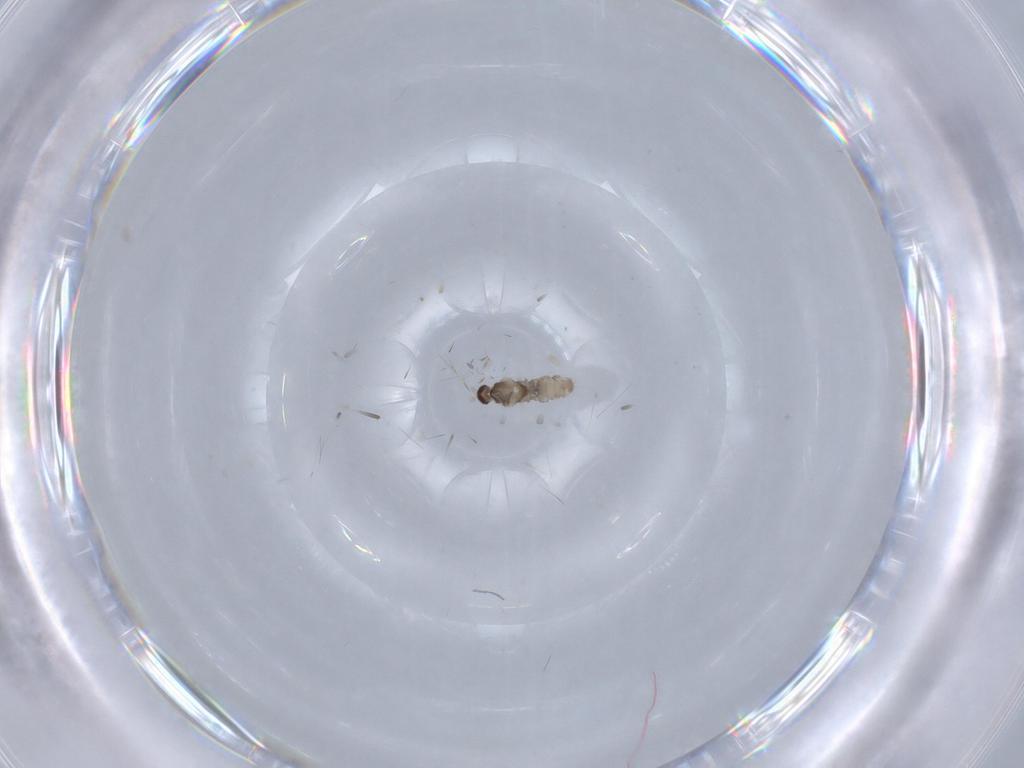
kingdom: Animalia
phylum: Arthropoda
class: Insecta
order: Diptera
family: Cecidomyiidae
